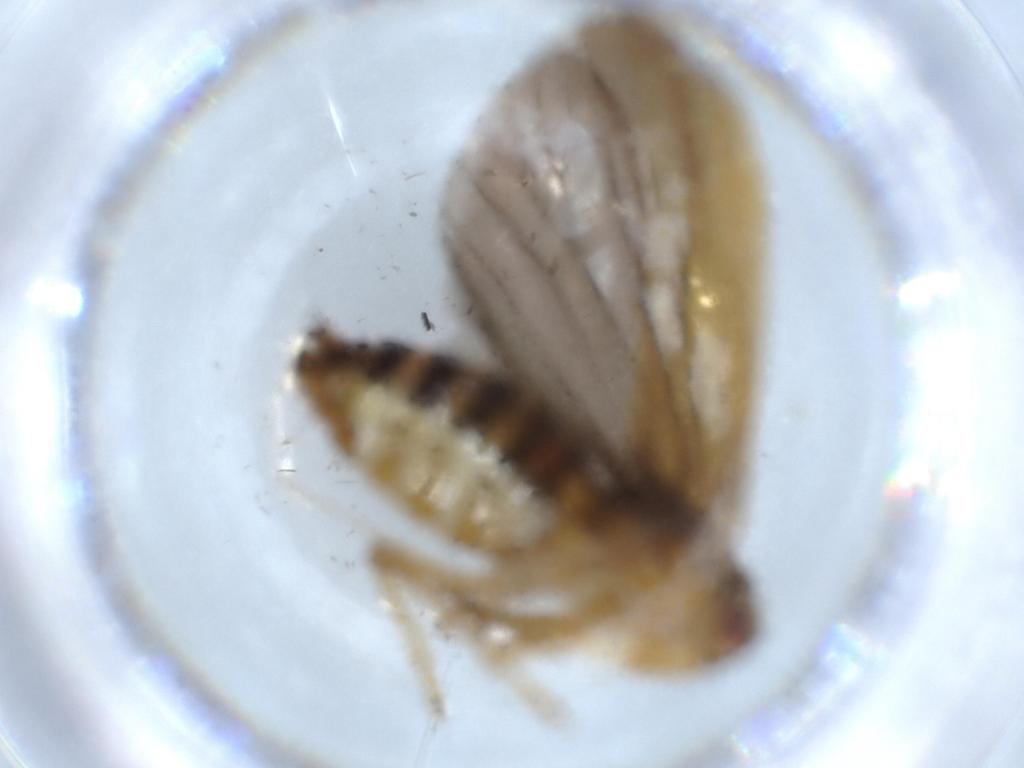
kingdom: Animalia
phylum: Arthropoda
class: Insecta
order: Hemiptera
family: Achilidae
